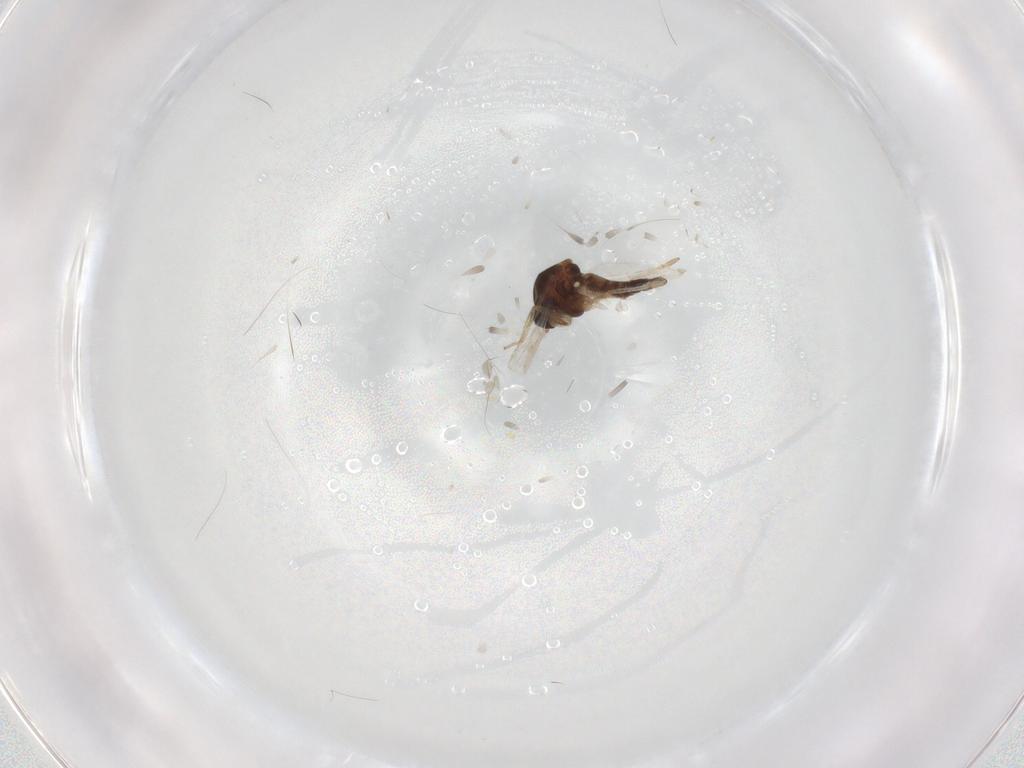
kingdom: Animalia
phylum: Arthropoda
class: Insecta
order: Diptera
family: Ceratopogonidae
